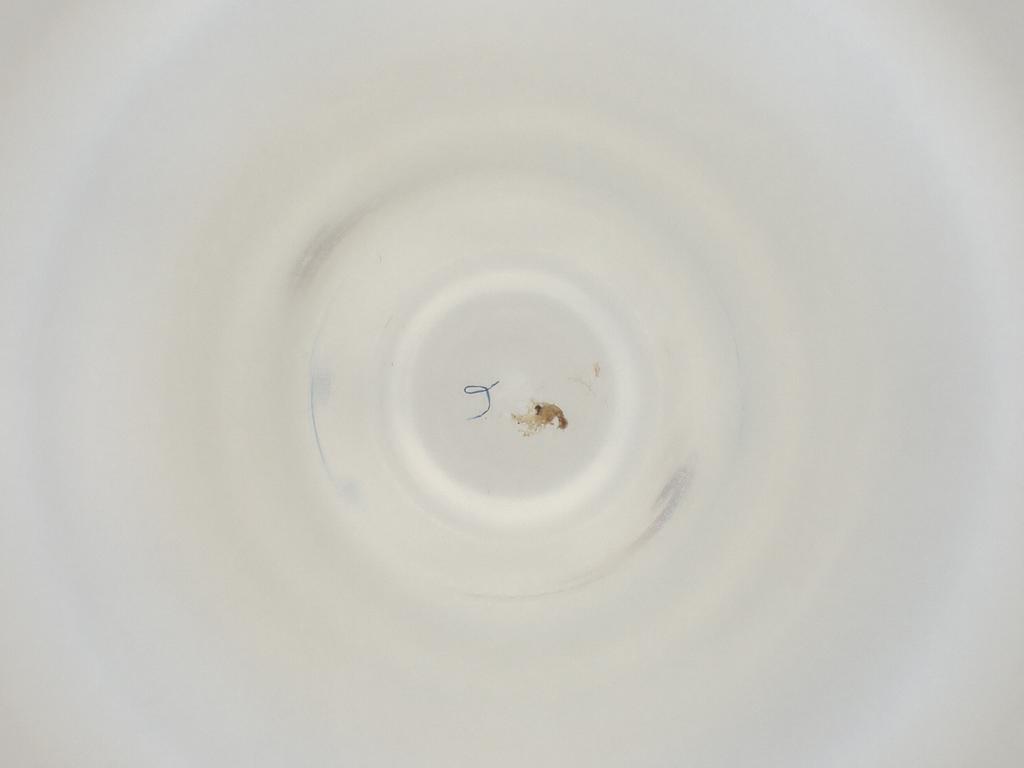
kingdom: Animalia
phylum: Arthropoda
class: Insecta
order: Diptera
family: Cecidomyiidae
